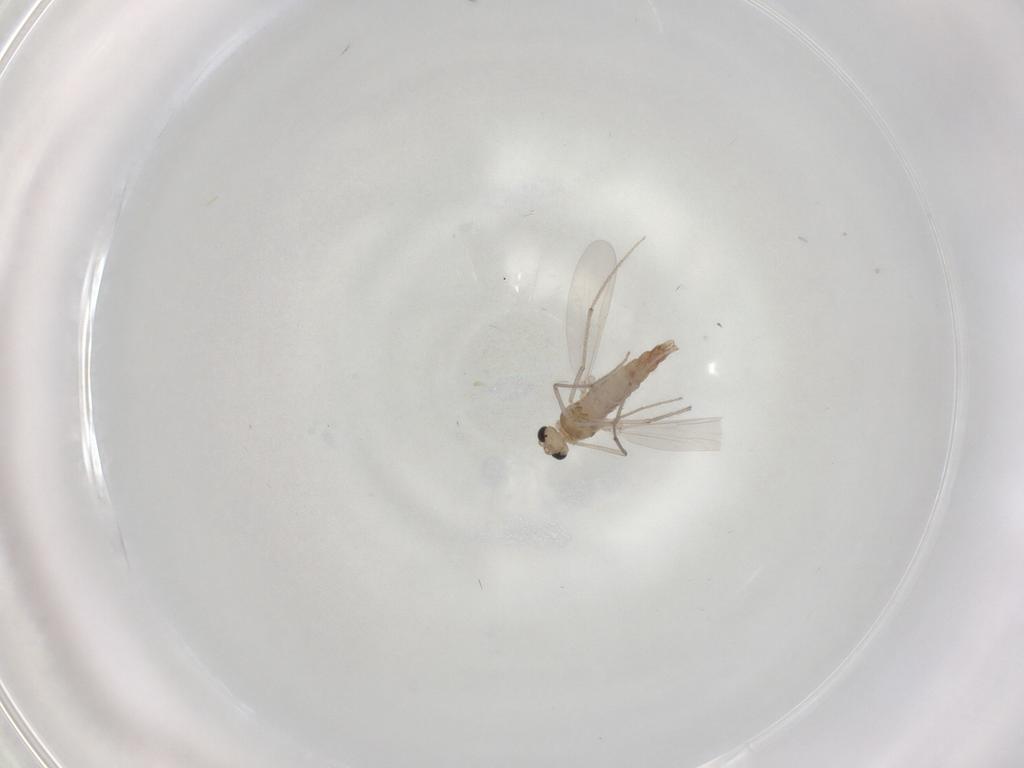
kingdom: Animalia
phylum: Arthropoda
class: Insecta
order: Diptera
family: Chironomidae
